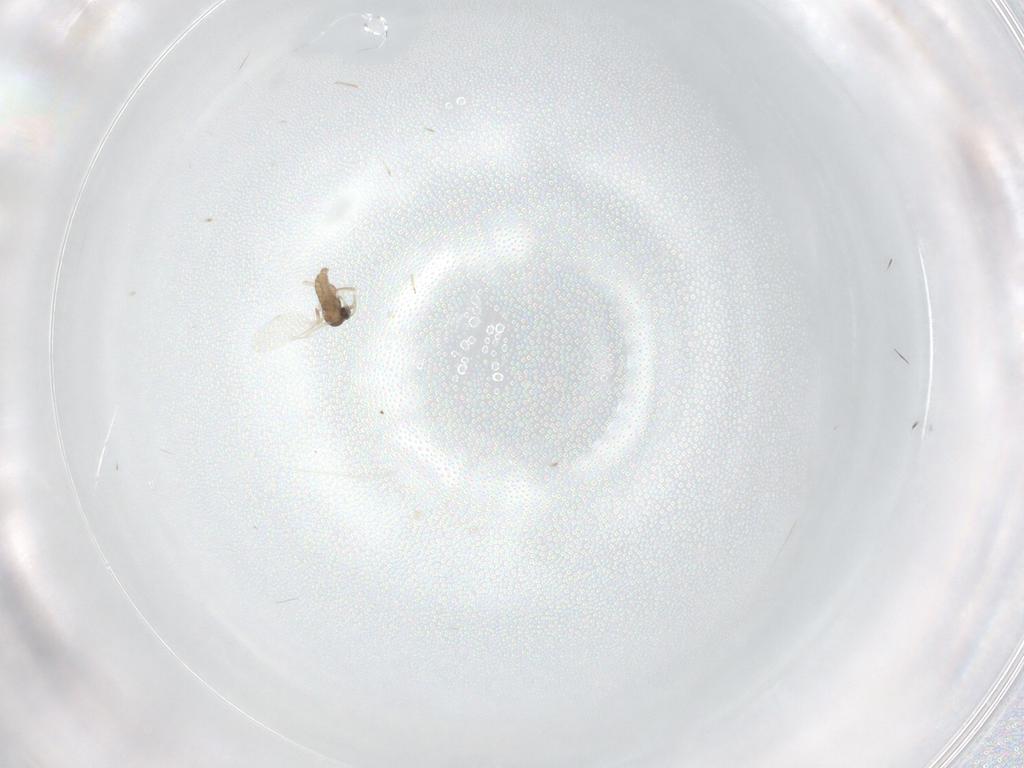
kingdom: Animalia
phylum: Arthropoda
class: Insecta
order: Diptera
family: Cecidomyiidae
